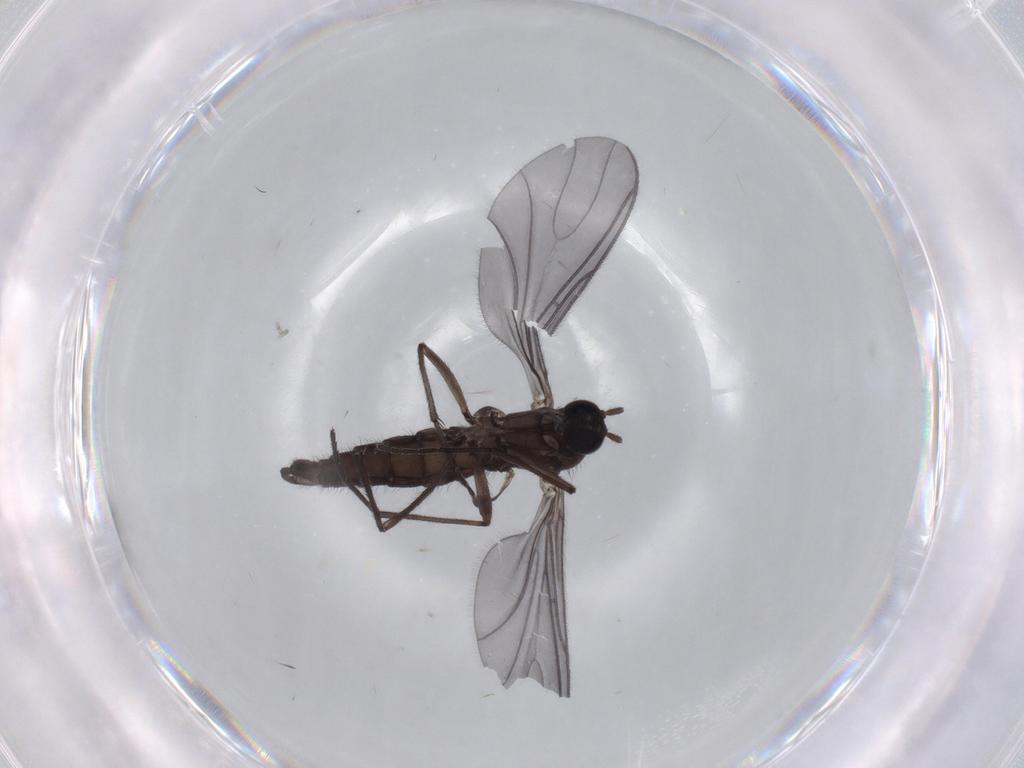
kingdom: Animalia
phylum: Arthropoda
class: Insecta
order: Diptera
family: Sciaridae
